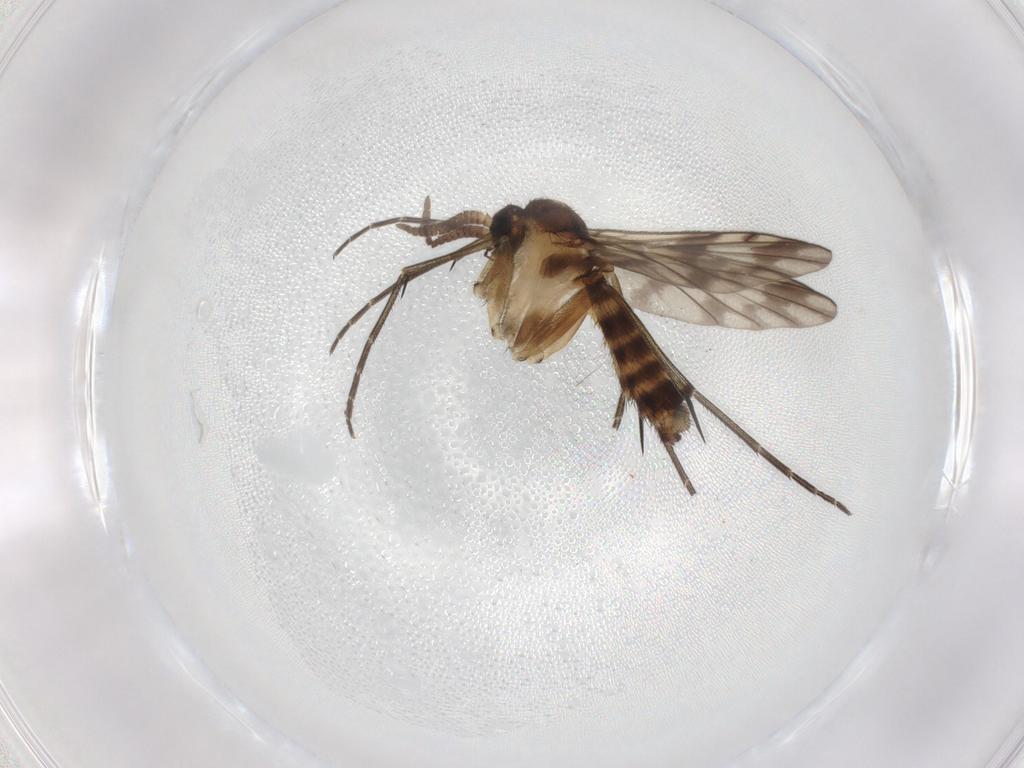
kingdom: Animalia
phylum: Arthropoda
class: Insecta
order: Diptera
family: Keroplatidae
